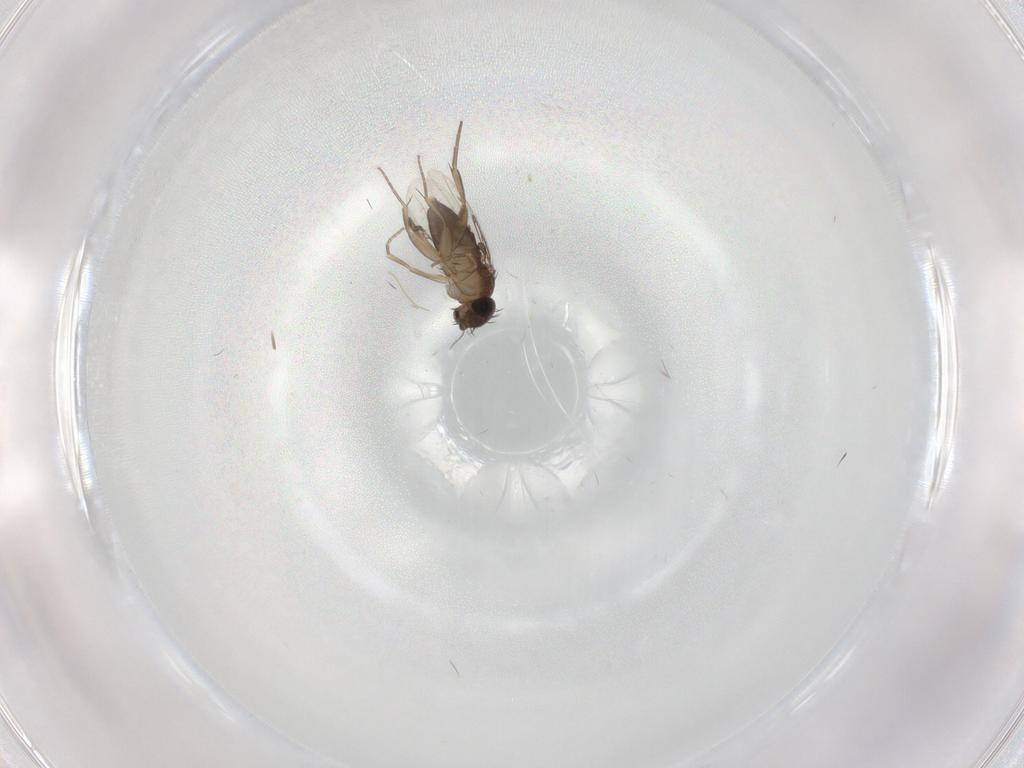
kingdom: Animalia
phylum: Arthropoda
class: Insecta
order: Diptera
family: Phoridae
